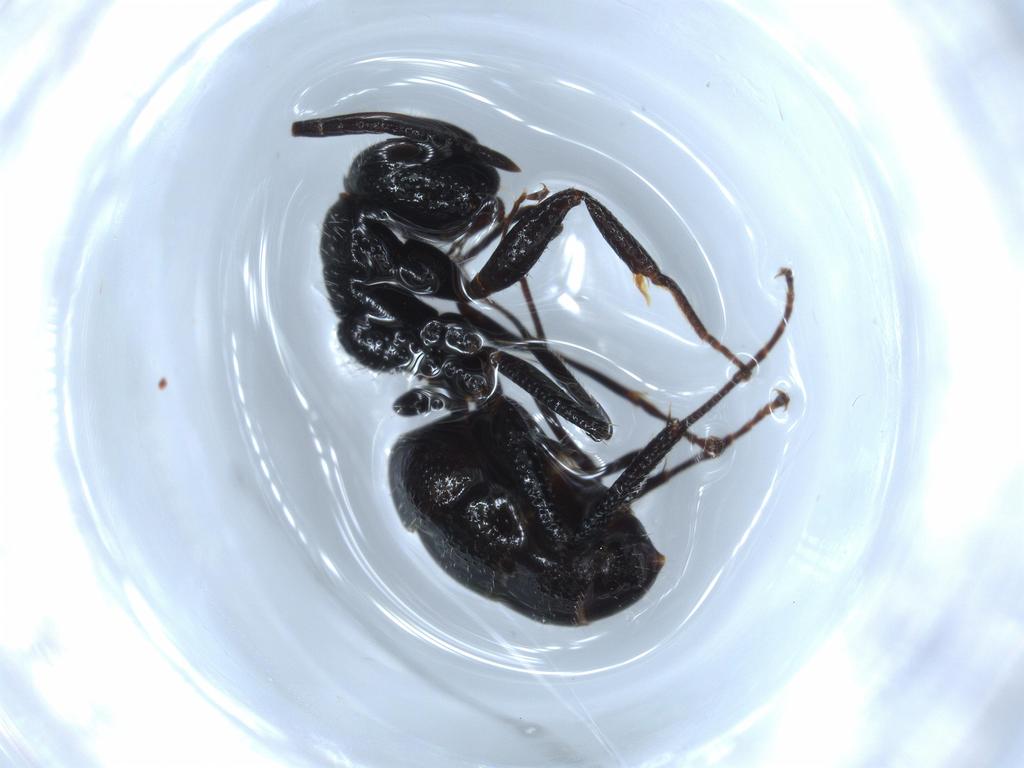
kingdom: Animalia
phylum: Arthropoda
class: Insecta
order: Hymenoptera
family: Formicidae
